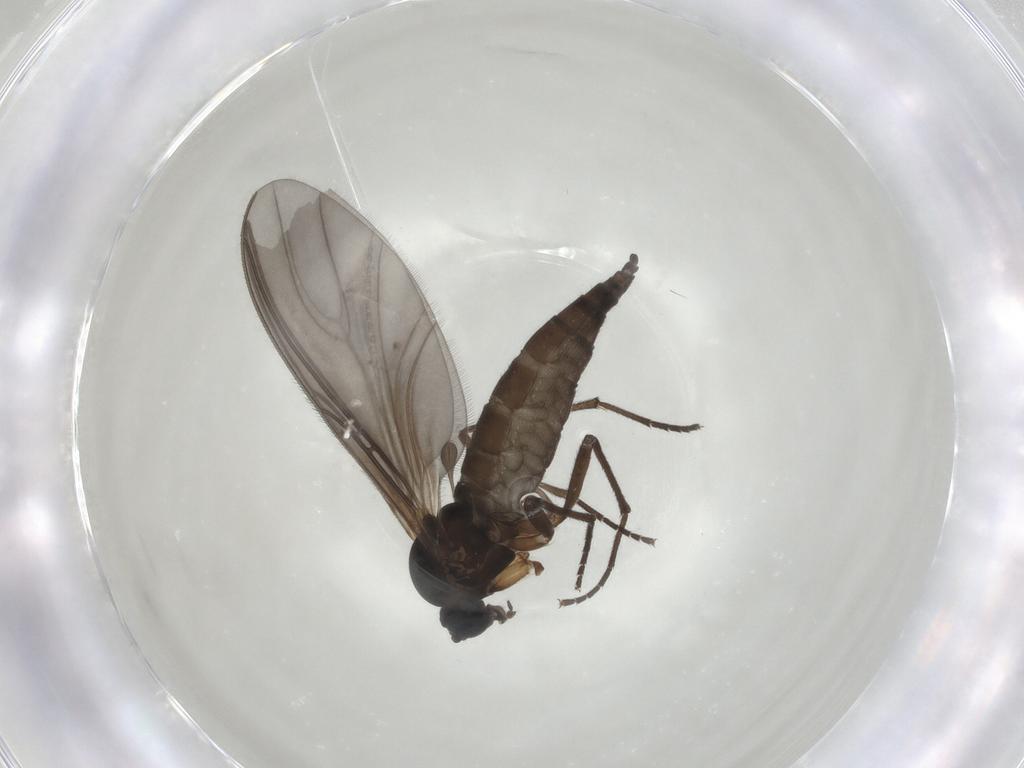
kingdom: Animalia
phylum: Arthropoda
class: Insecta
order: Diptera
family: Sciaridae
